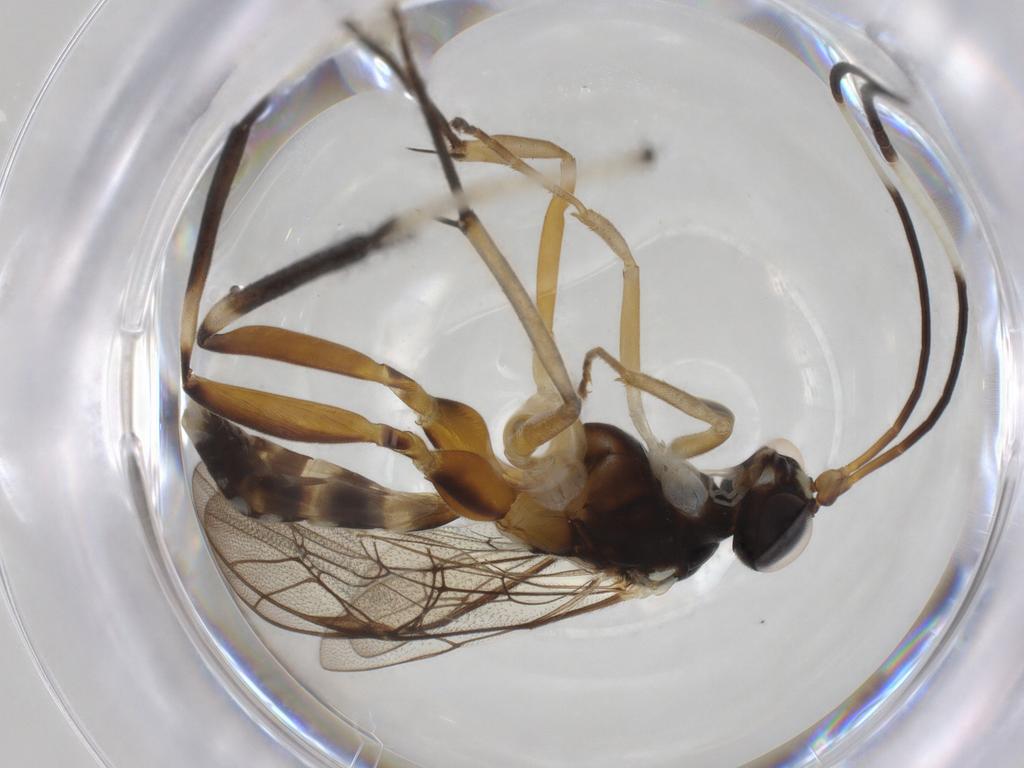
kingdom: Animalia
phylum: Arthropoda
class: Insecta
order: Hymenoptera
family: Ichneumonidae
